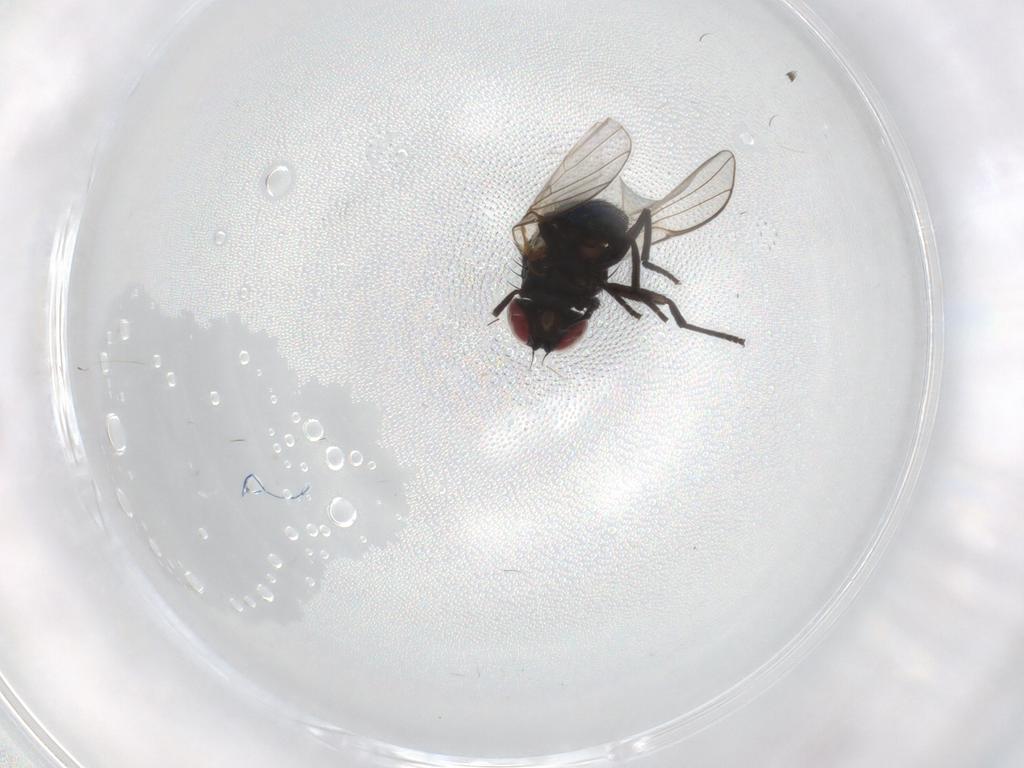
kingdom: Animalia
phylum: Arthropoda
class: Insecta
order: Diptera
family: Agromyzidae
